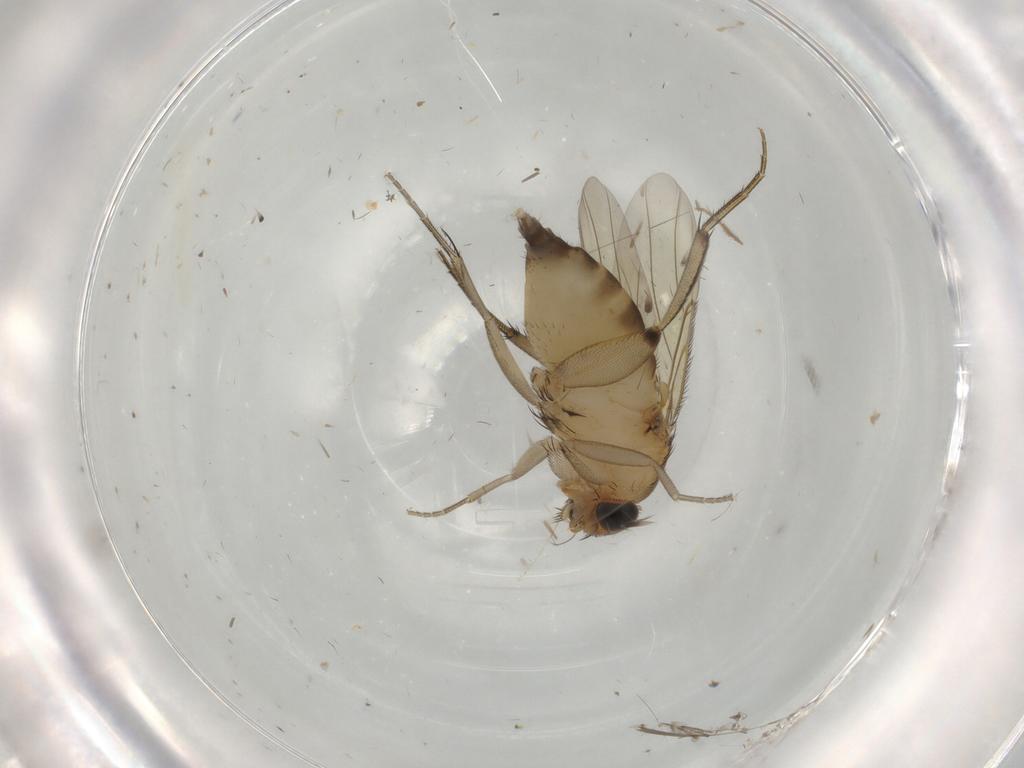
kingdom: Animalia
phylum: Arthropoda
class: Insecta
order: Diptera
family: Phoridae
